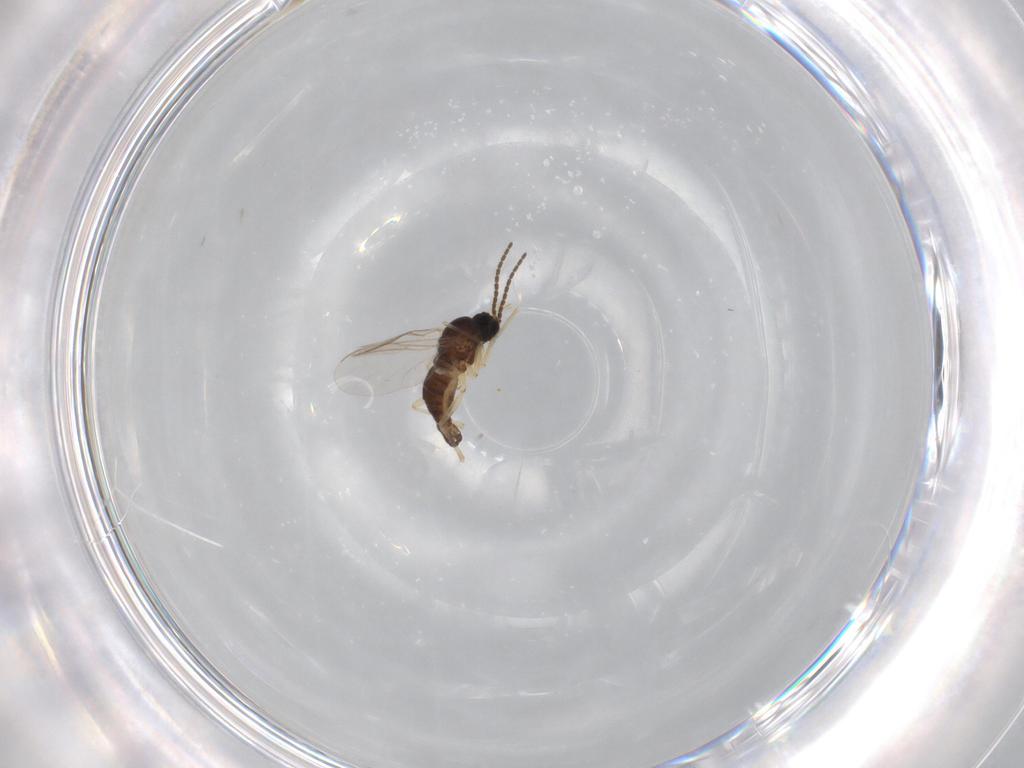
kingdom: Animalia
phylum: Arthropoda
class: Insecta
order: Diptera
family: Sciaridae
